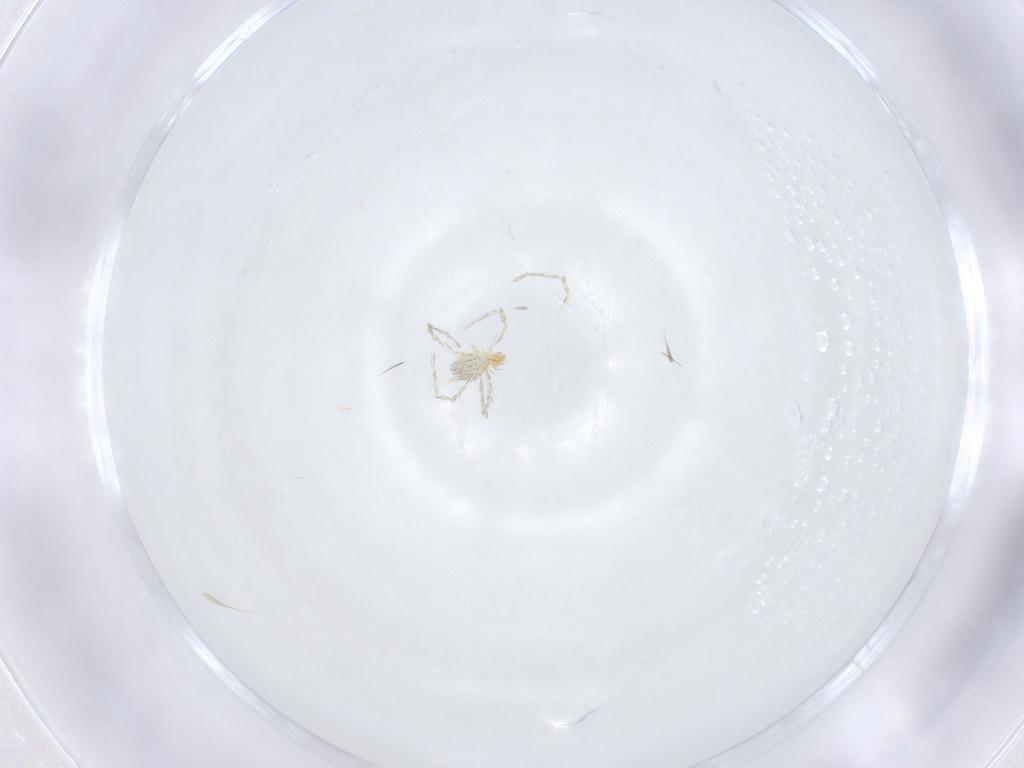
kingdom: Animalia
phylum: Arthropoda
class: Arachnida
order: Trombidiformes
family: Erythraeidae
